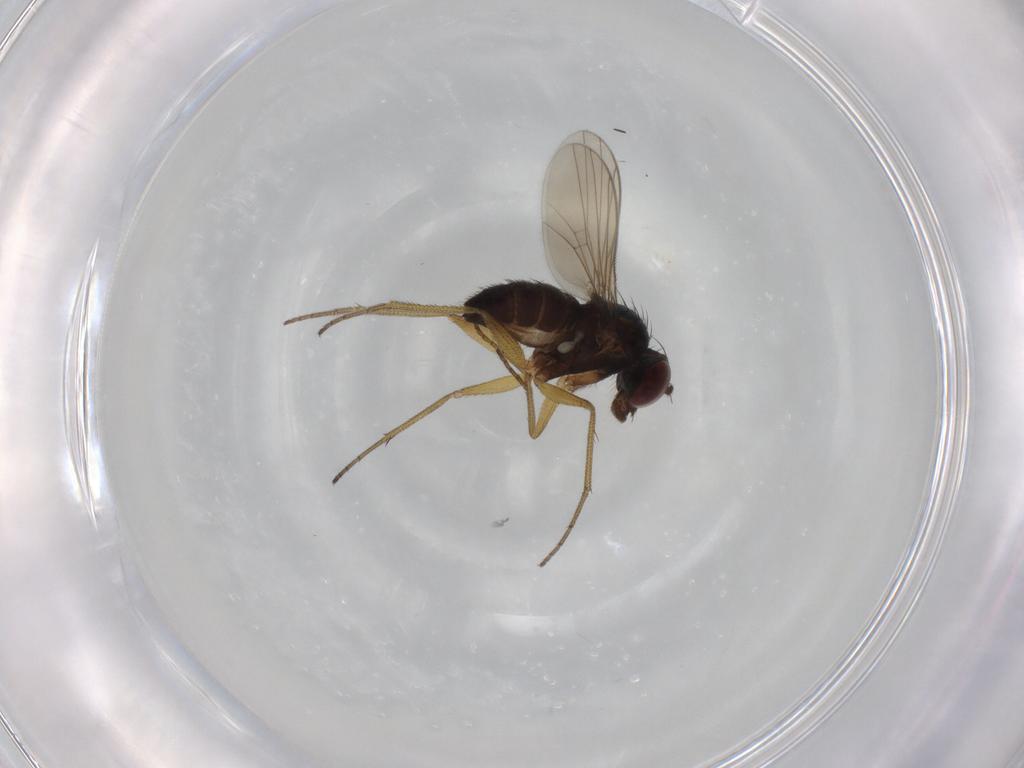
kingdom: Animalia
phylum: Arthropoda
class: Insecta
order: Diptera
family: Dolichopodidae
